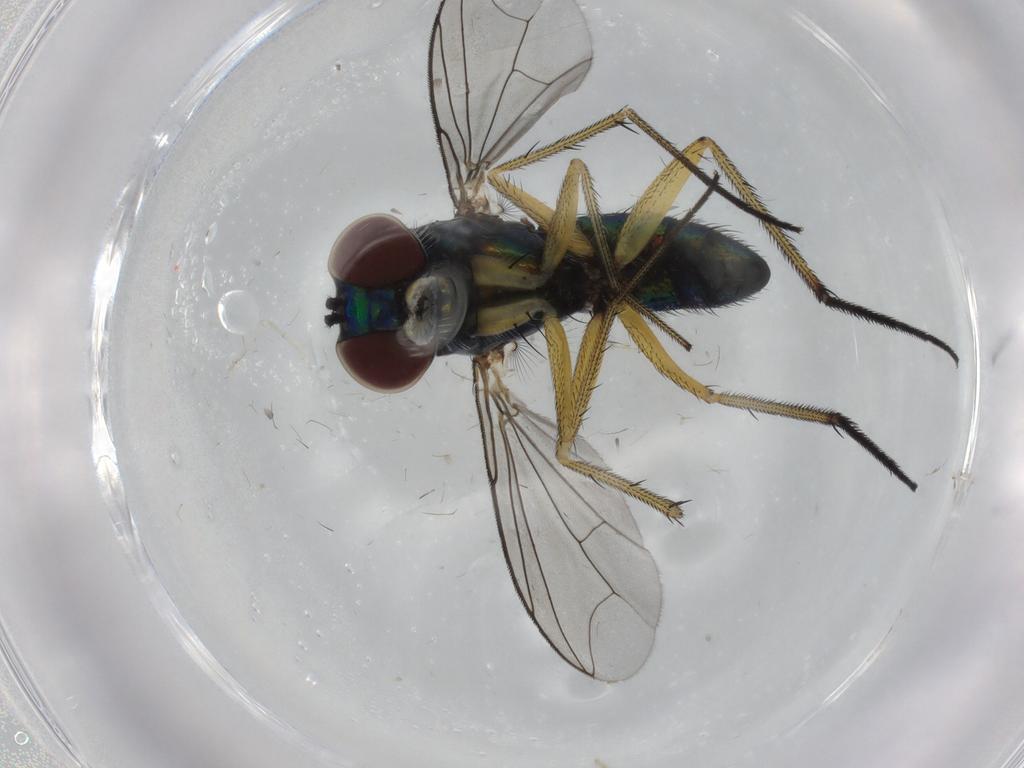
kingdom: Animalia
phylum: Arthropoda
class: Insecta
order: Diptera
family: Dolichopodidae
